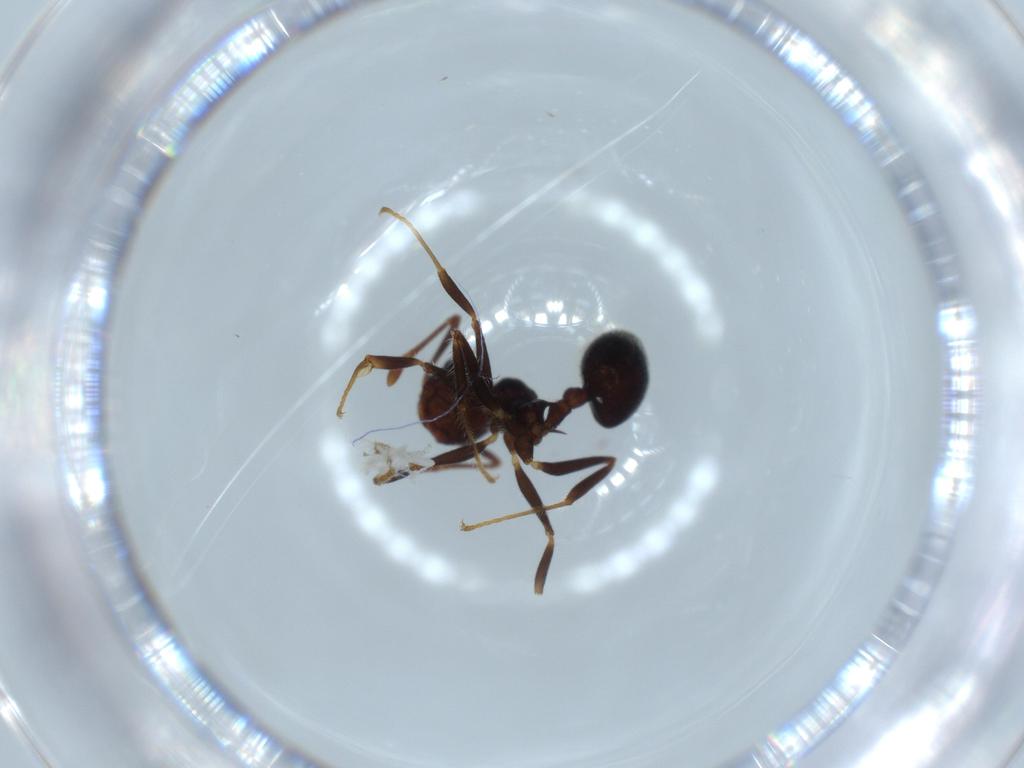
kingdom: Animalia
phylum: Arthropoda
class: Insecta
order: Hymenoptera
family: Formicidae
